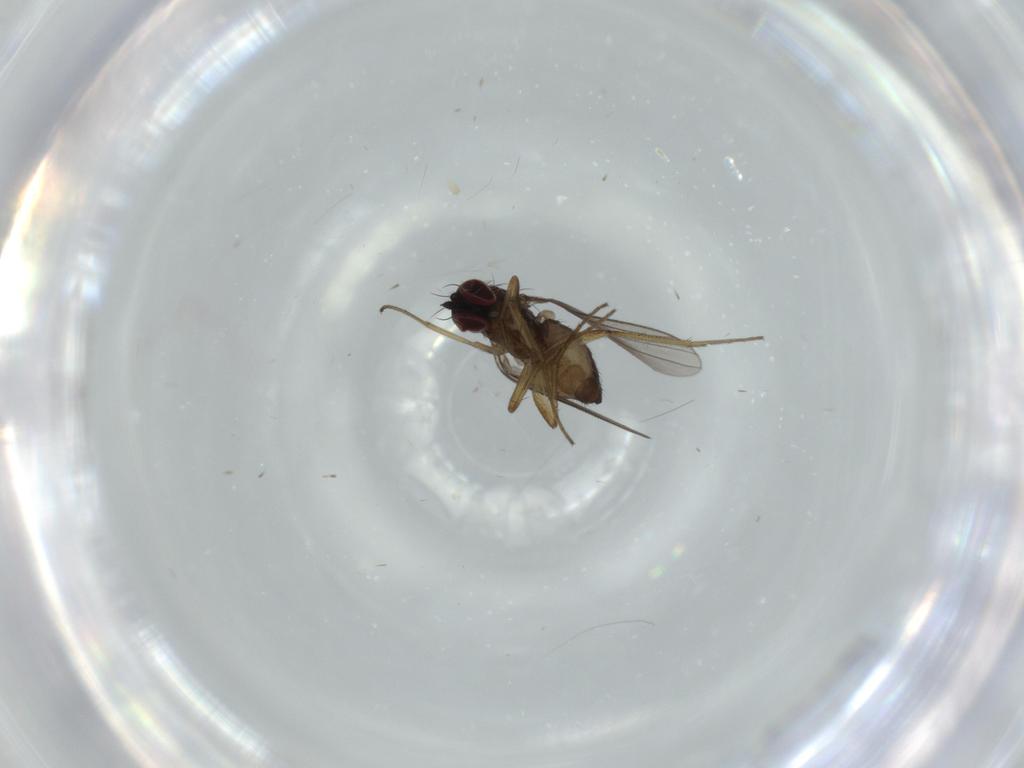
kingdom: Animalia
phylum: Arthropoda
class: Insecta
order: Diptera
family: Dolichopodidae
